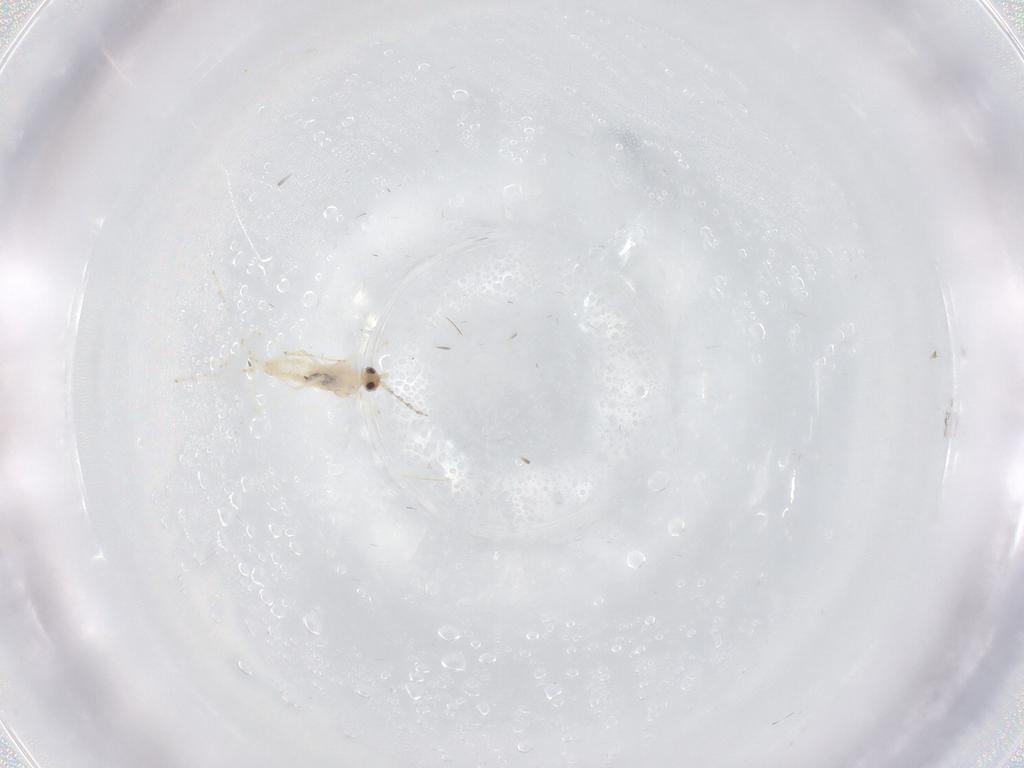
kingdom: Animalia
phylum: Arthropoda
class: Insecta
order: Diptera
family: Cecidomyiidae
